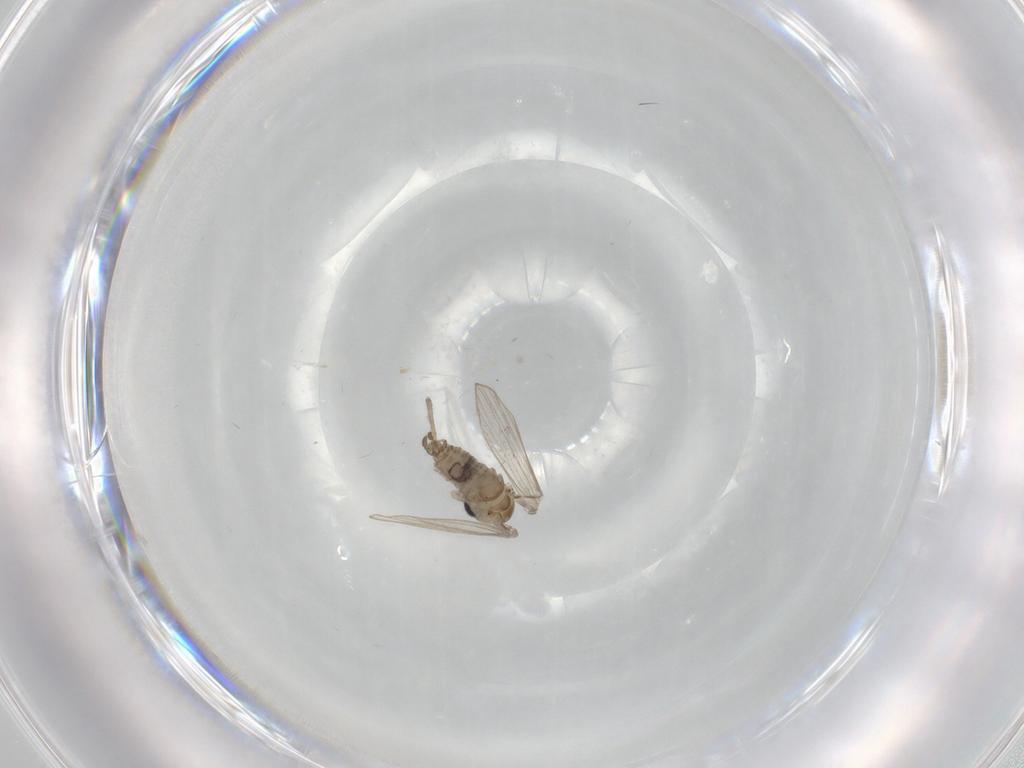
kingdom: Animalia
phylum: Arthropoda
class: Insecta
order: Diptera
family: Psychodidae
